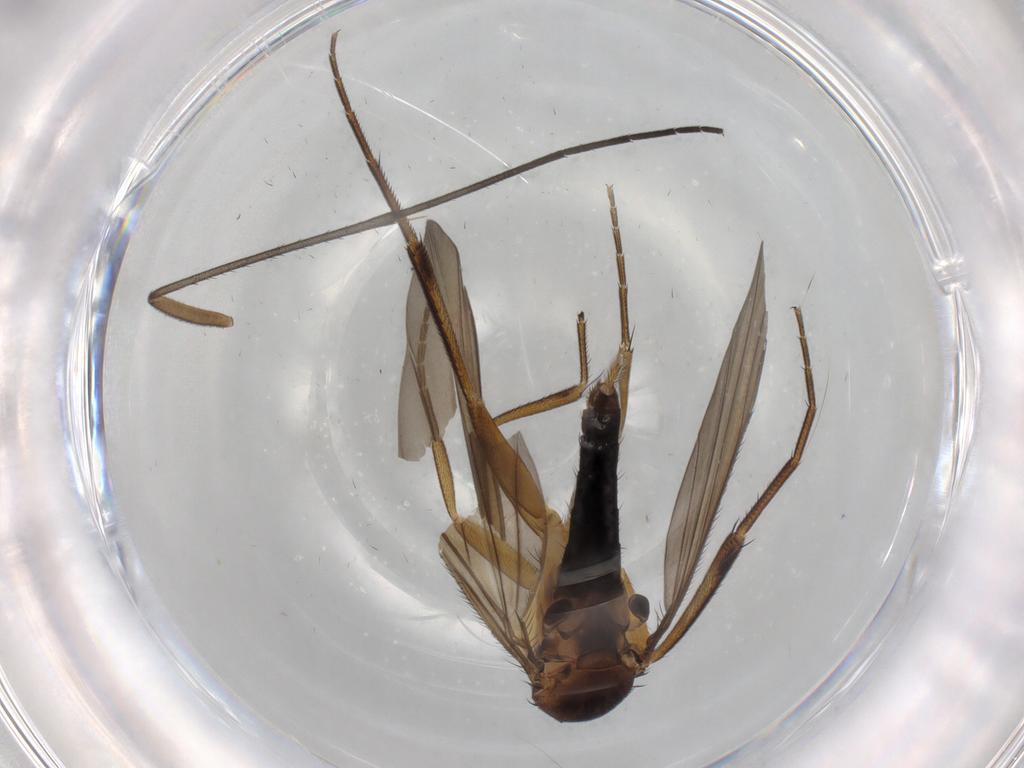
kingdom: Animalia
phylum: Arthropoda
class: Insecta
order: Diptera
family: Phoridae
